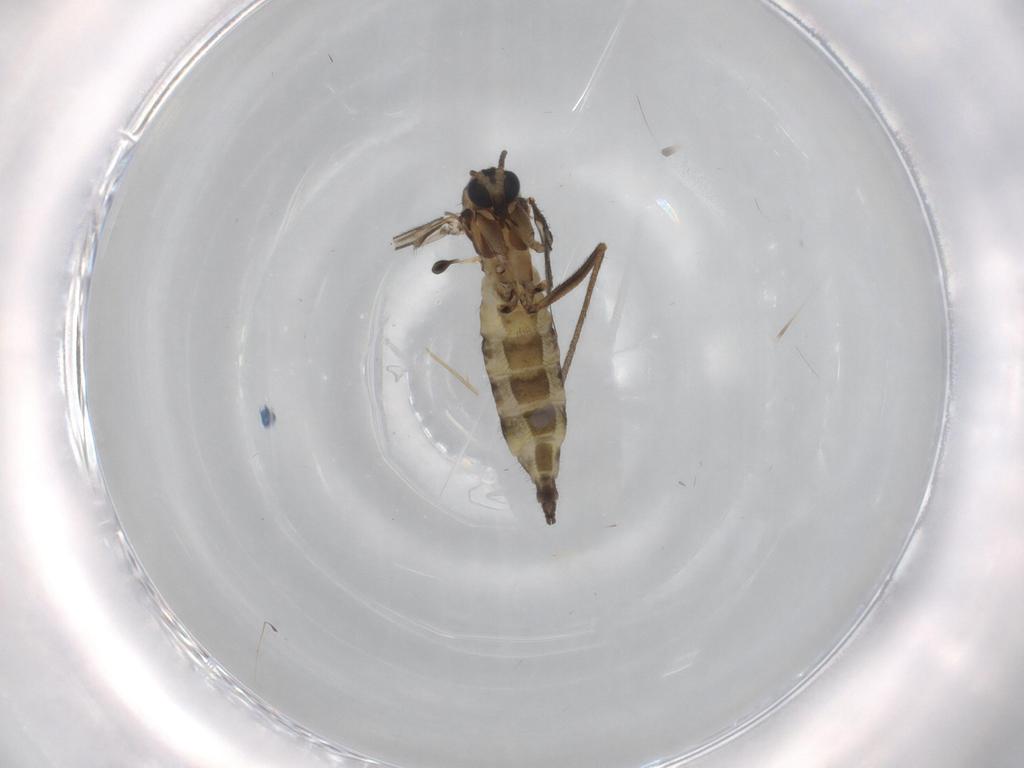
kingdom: Animalia
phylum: Arthropoda
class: Insecta
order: Diptera
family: Sciaridae
